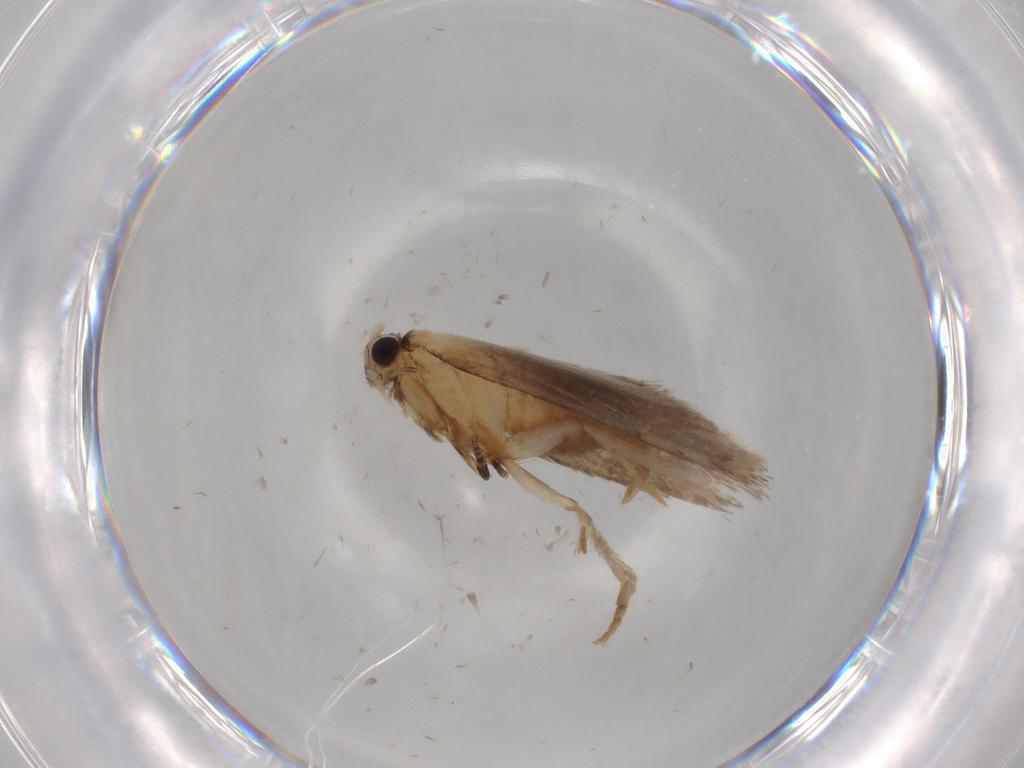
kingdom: Animalia
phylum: Arthropoda
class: Insecta
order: Lepidoptera
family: Tineidae
